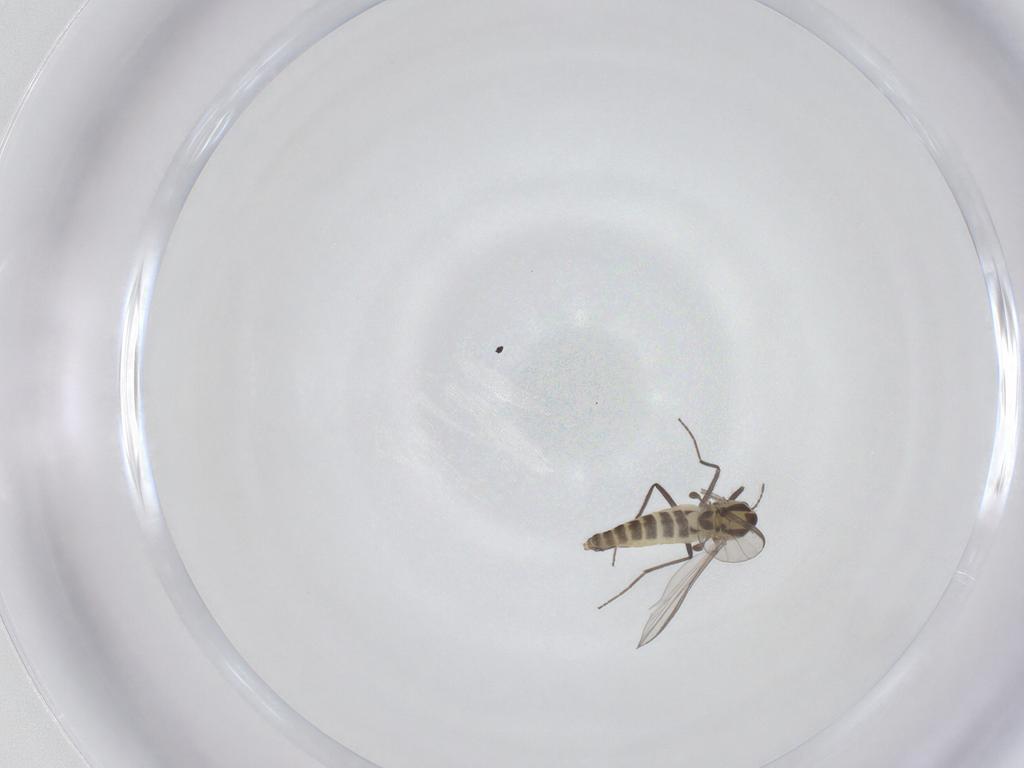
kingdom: Animalia
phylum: Arthropoda
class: Insecta
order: Diptera
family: Chironomidae
